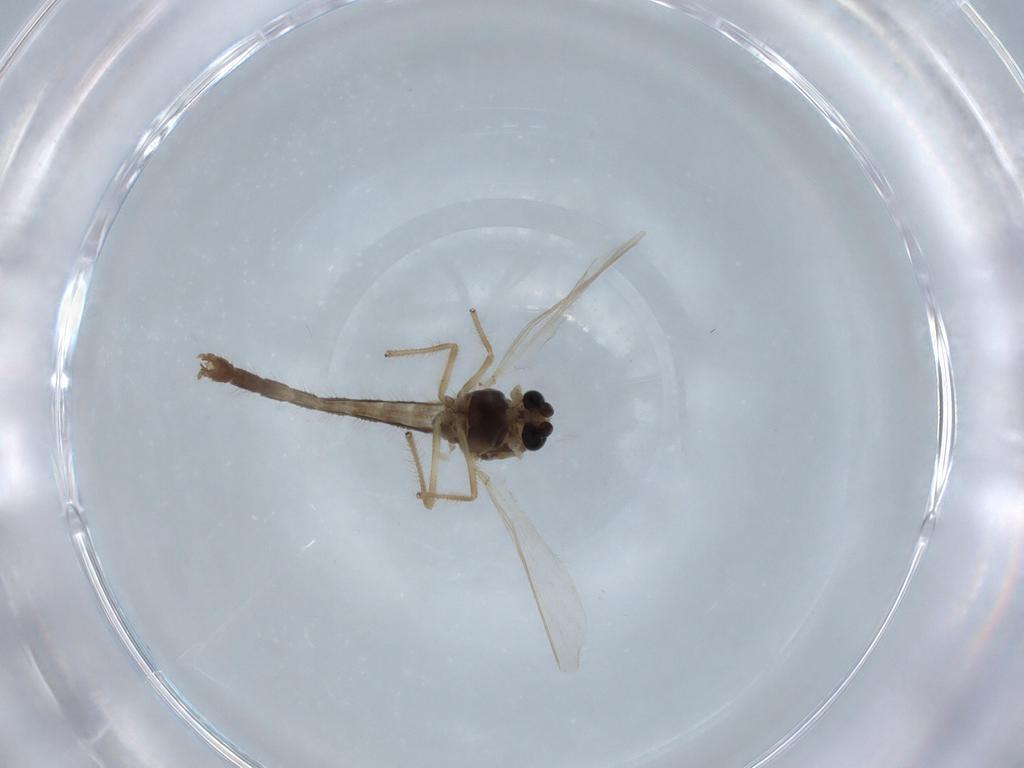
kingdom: Animalia
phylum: Arthropoda
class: Insecta
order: Diptera
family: Chironomidae
